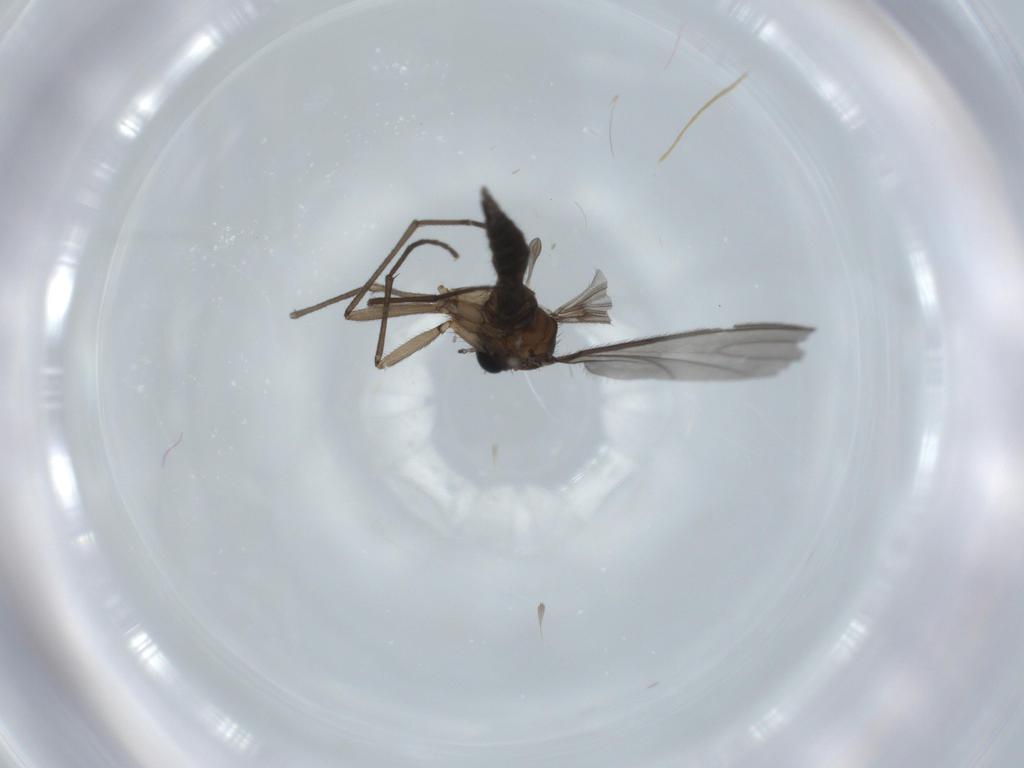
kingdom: Animalia
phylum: Arthropoda
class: Insecta
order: Diptera
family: Sciaridae
